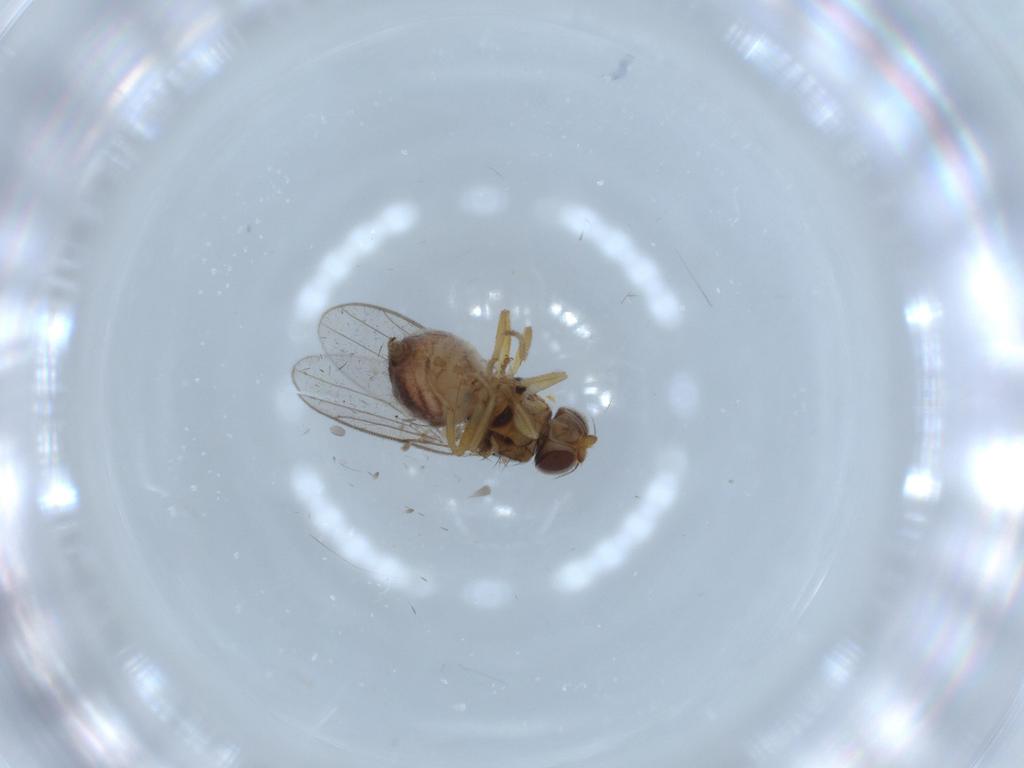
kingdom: Animalia
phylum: Arthropoda
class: Insecta
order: Diptera
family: Chloropidae
